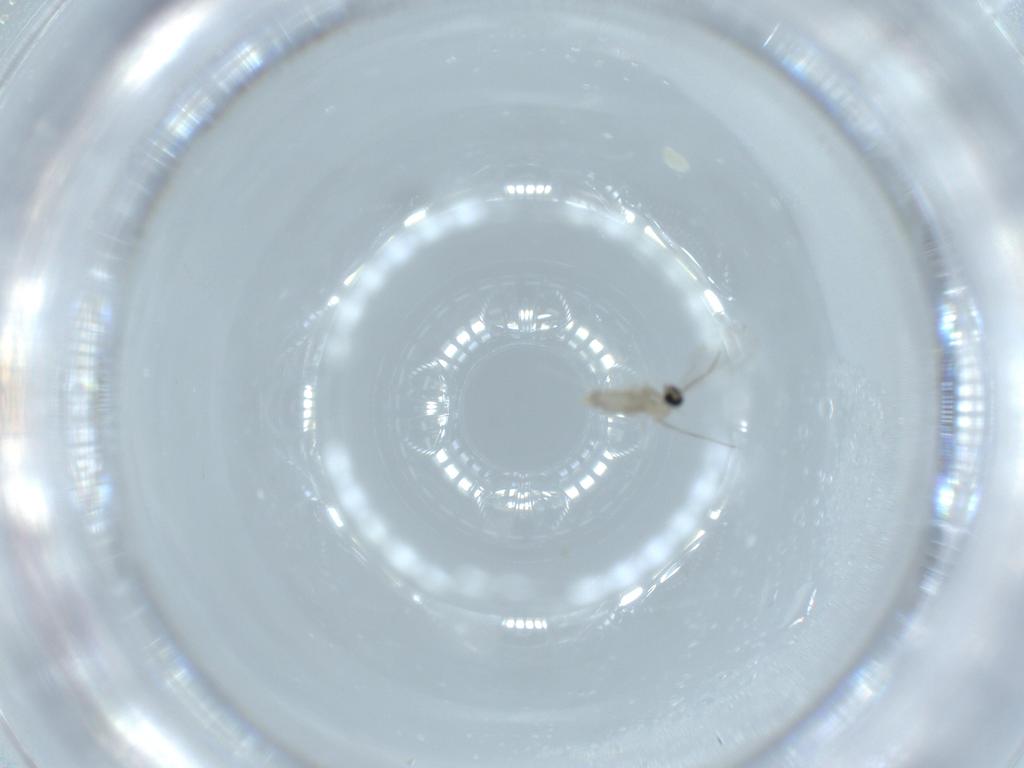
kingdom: Animalia
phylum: Arthropoda
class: Insecta
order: Diptera
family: Cecidomyiidae
